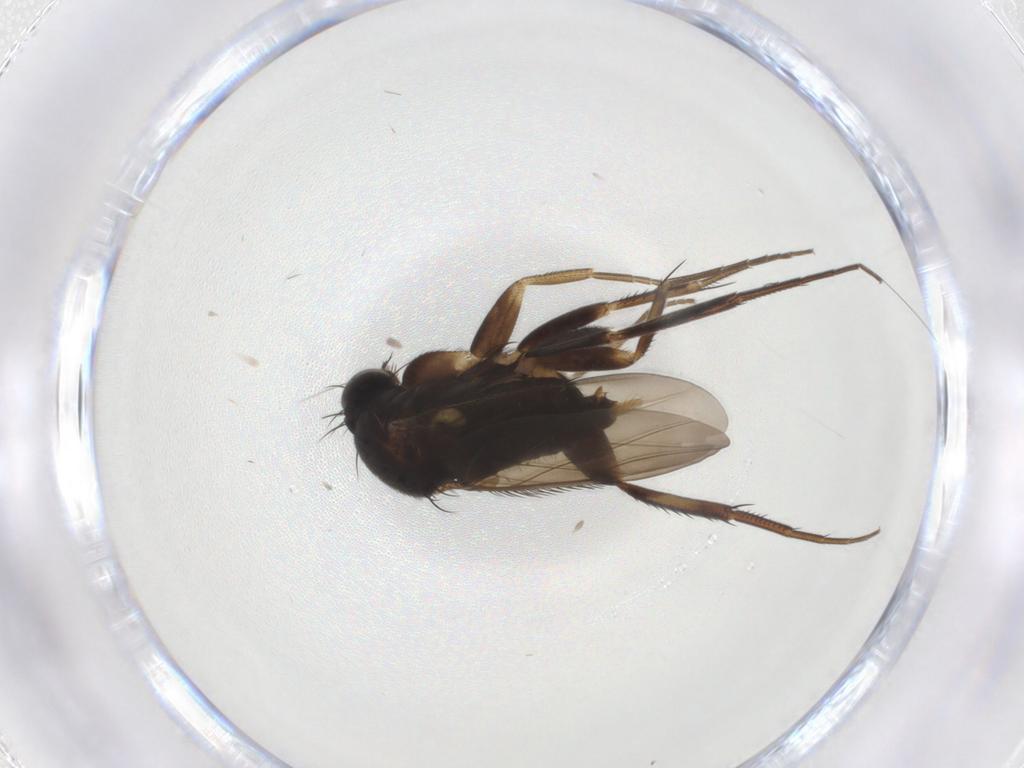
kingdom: Animalia
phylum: Arthropoda
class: Insecta
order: Diptera
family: Phoridae
